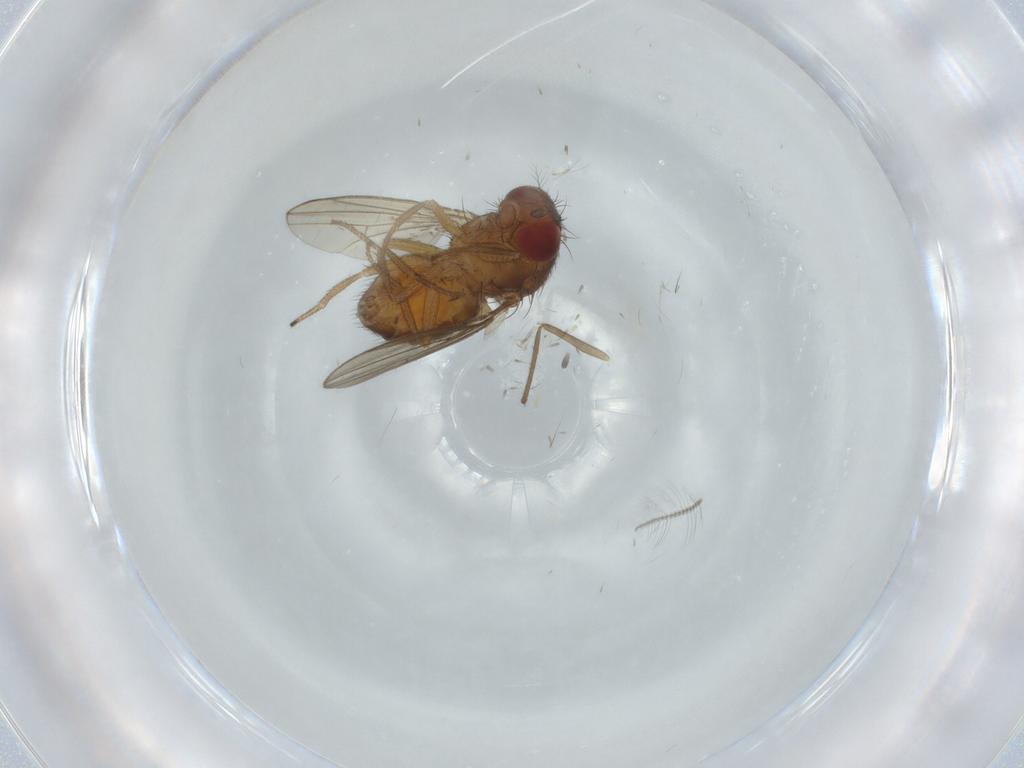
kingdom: Animalia
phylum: Arthropoda
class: Insecta
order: Diptera
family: Drosophilidae
